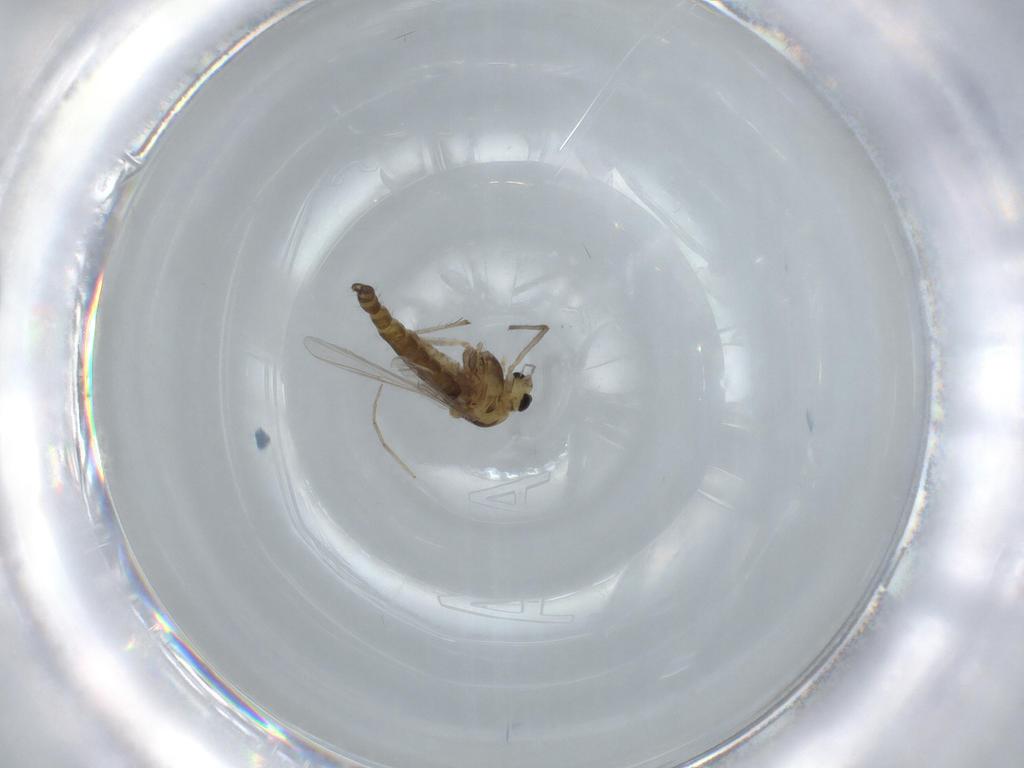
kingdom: Animalia
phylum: Arthropoda
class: Insecta
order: Diptera
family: Chironomidae
